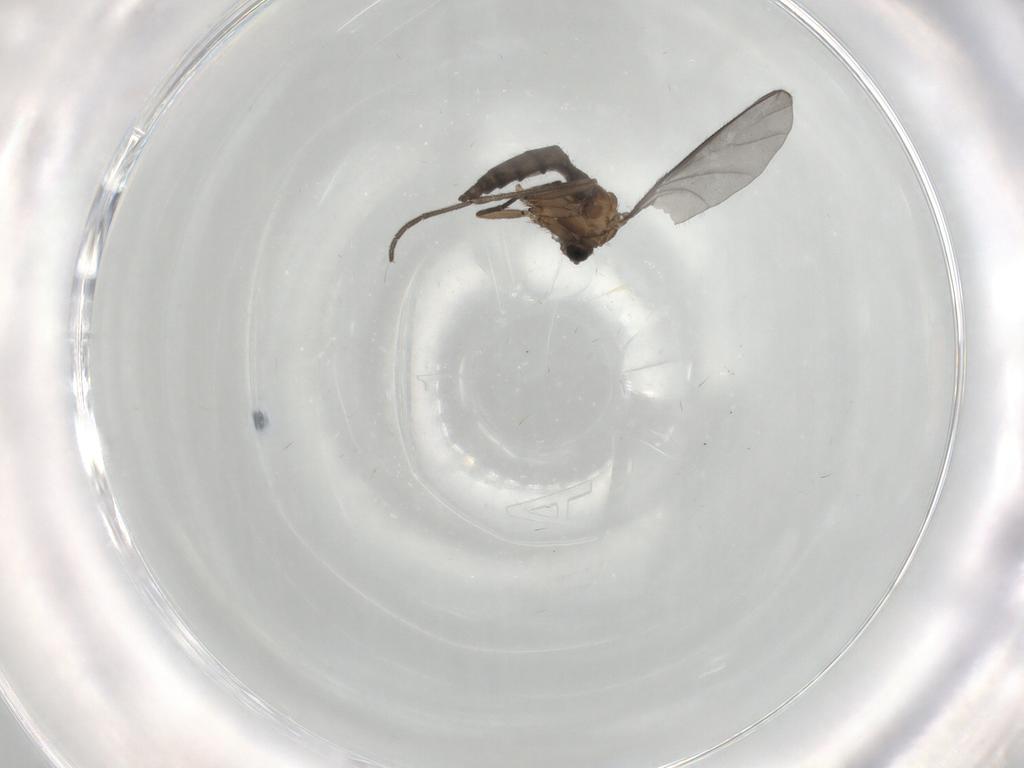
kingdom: Animalia
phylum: Arthropoda
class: Insecta
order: Diptera
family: Sciaridae
